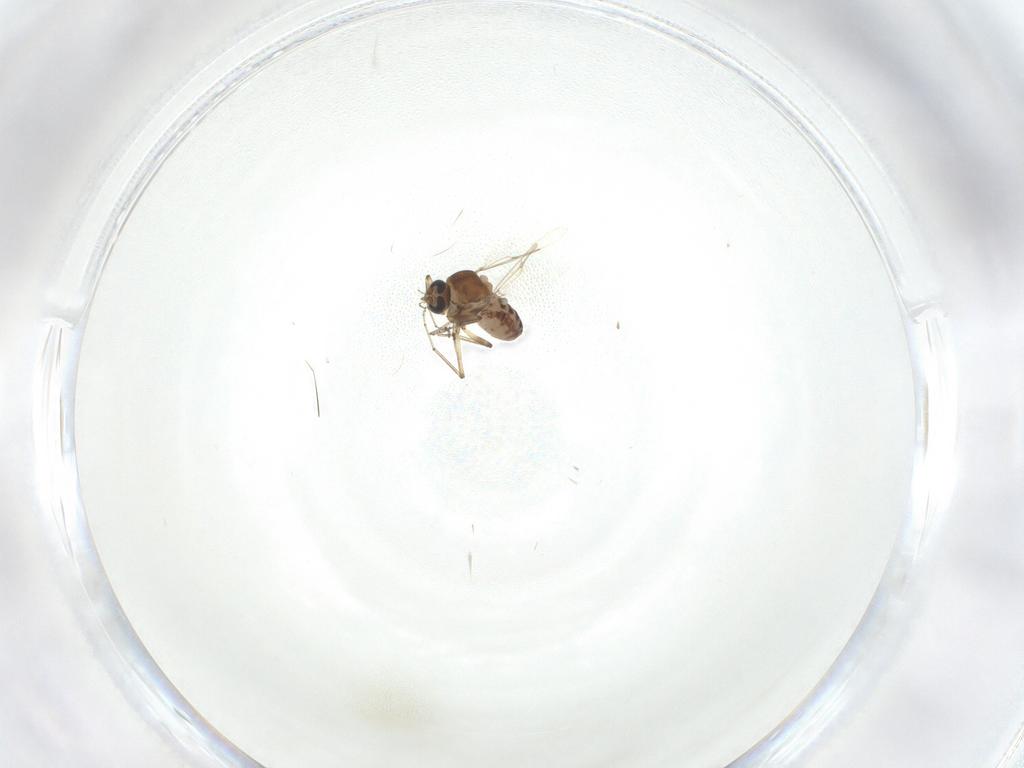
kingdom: Animalia
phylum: Arthropoda
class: Insecta
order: Diptera
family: Ceratopogonidae
